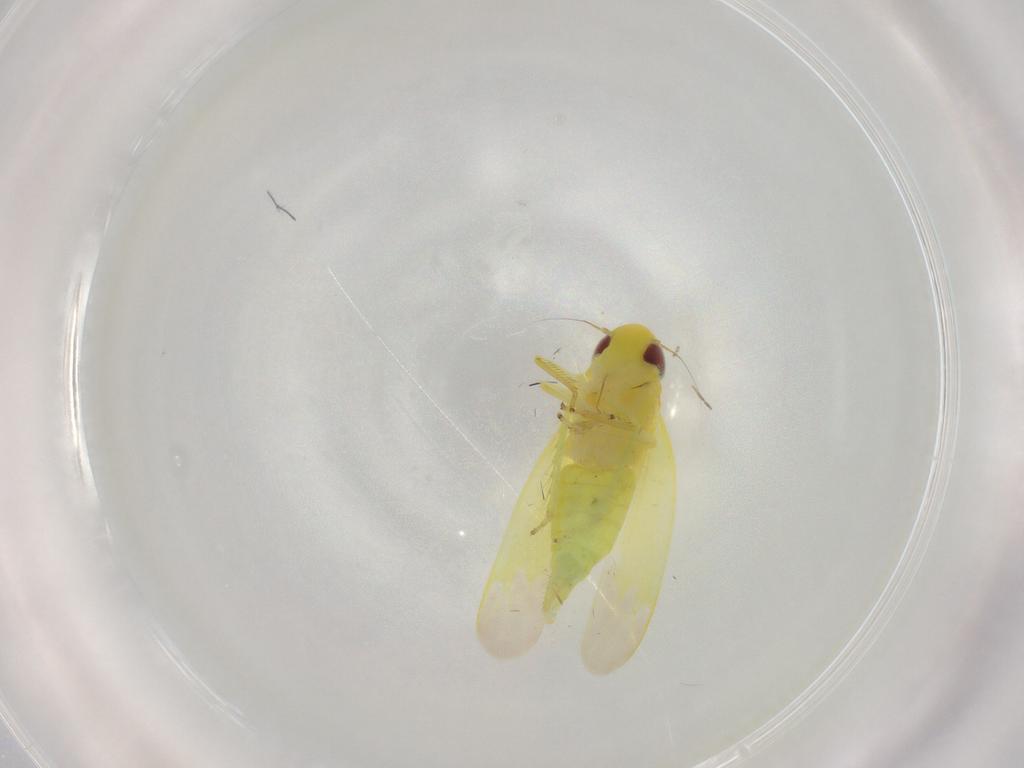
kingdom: Animalia
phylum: Arthropoda
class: Insecta
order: Hemiptera
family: Cicadellidae
